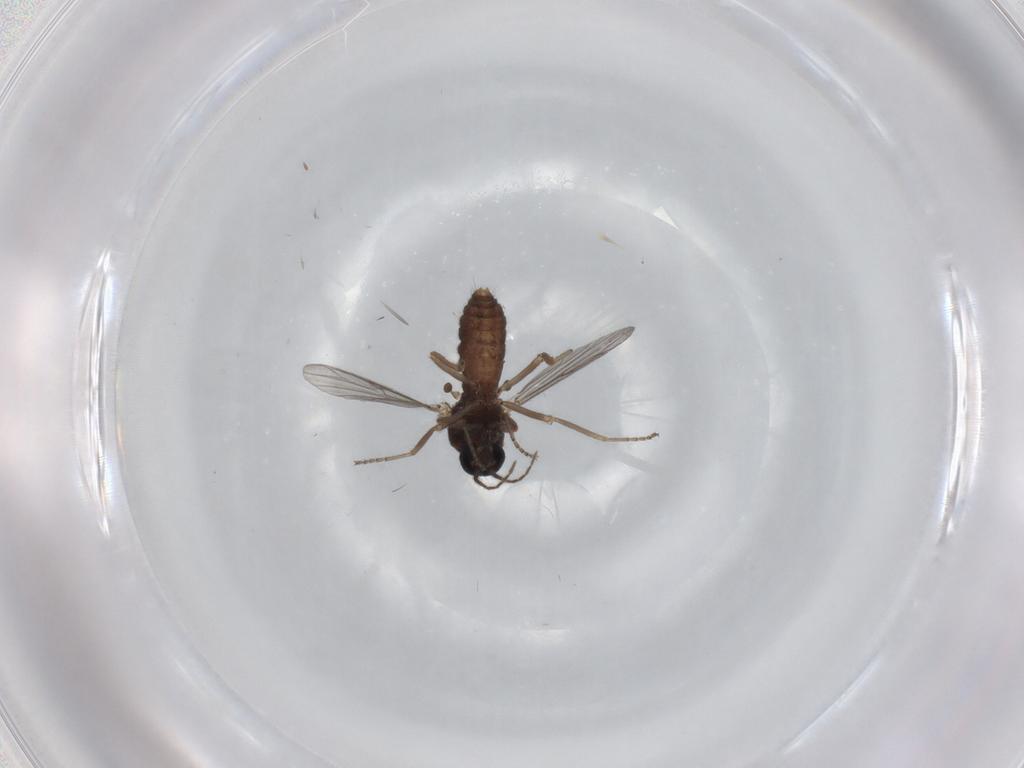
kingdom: Animalia
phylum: Arthropoda
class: Insecta
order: Diptera
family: Ceratopogonidae
